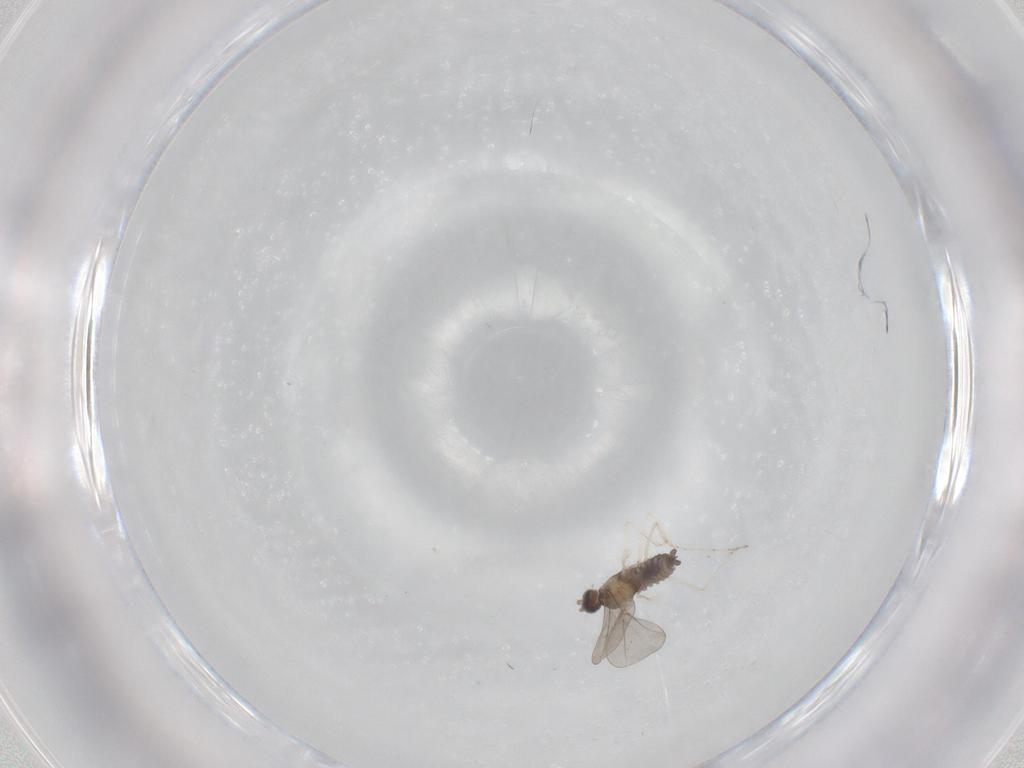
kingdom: Animalia
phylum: Arthropoda
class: Insecta
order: Diptera
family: Cecidomyiidae
